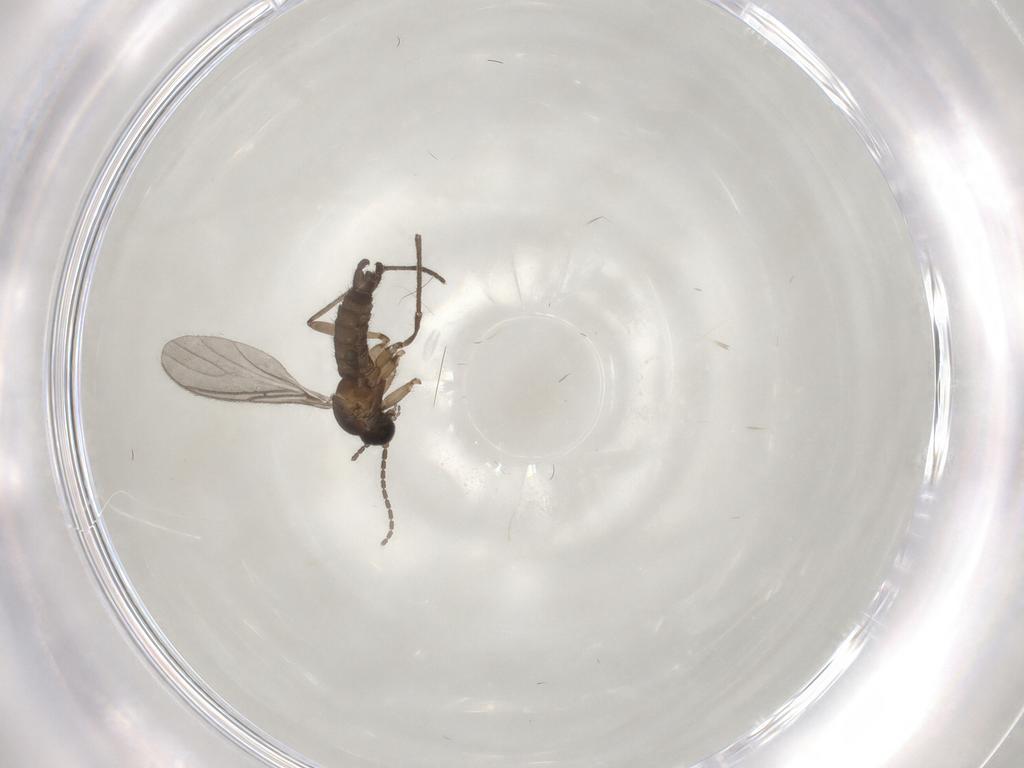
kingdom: Animalia
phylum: Arthropoda
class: Insecta
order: Diptera
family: Sciaridae
